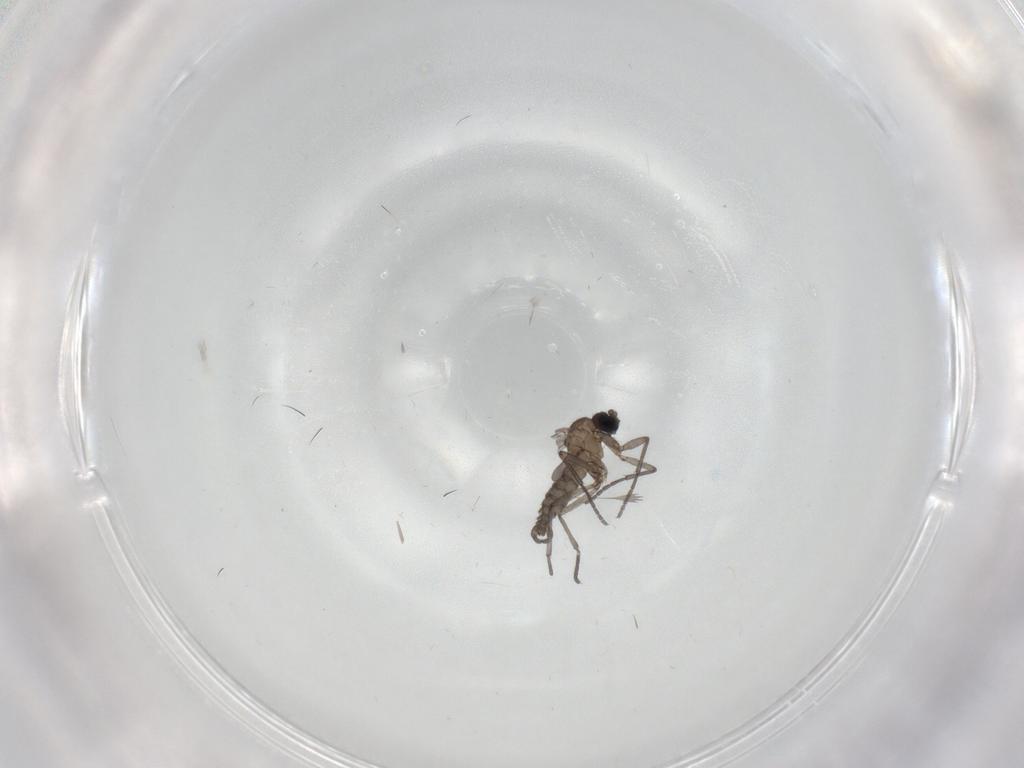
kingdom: Animalia
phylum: Arthropoda
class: Insecta
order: Diptera
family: Sciaridae
